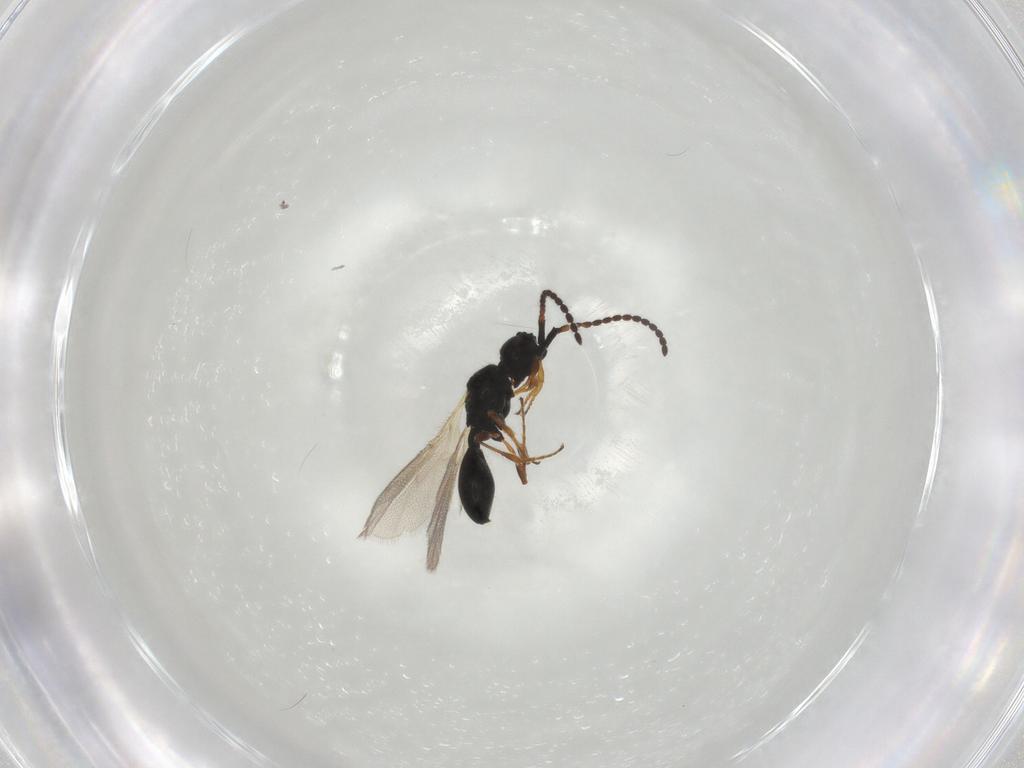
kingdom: Animalia
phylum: Arthropoda
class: Insecta
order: Hymenoptera
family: Diapriidae
